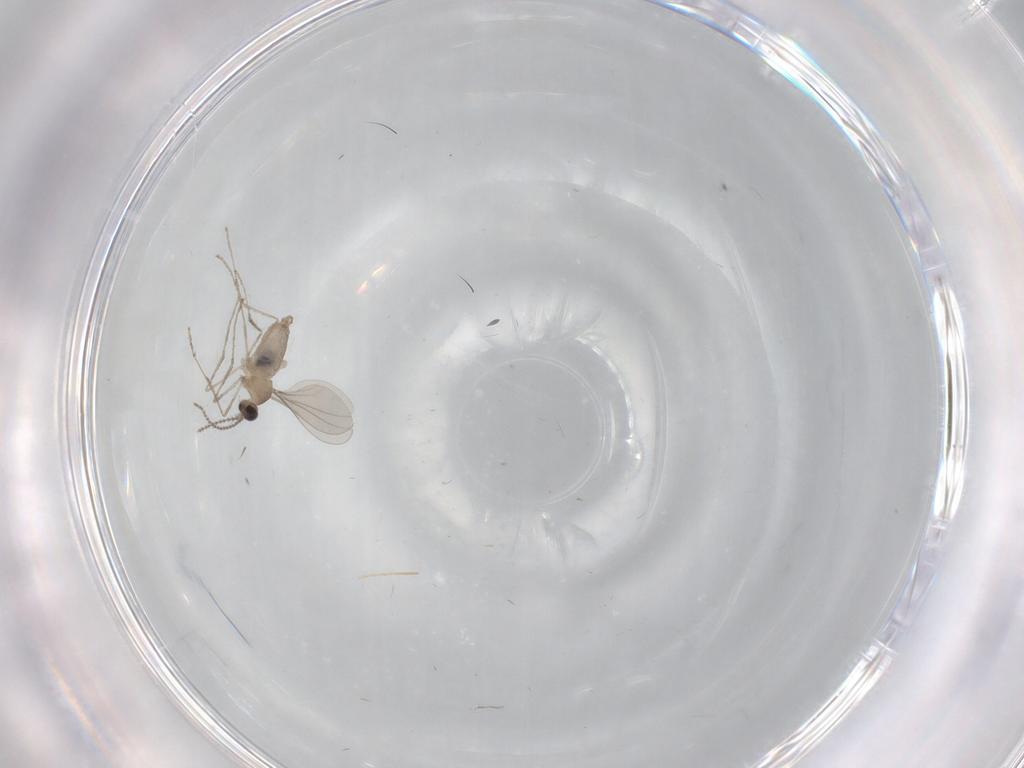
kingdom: Animalia
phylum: Arthropoda
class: Insecta
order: Diptera
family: Cecidomyiidae
